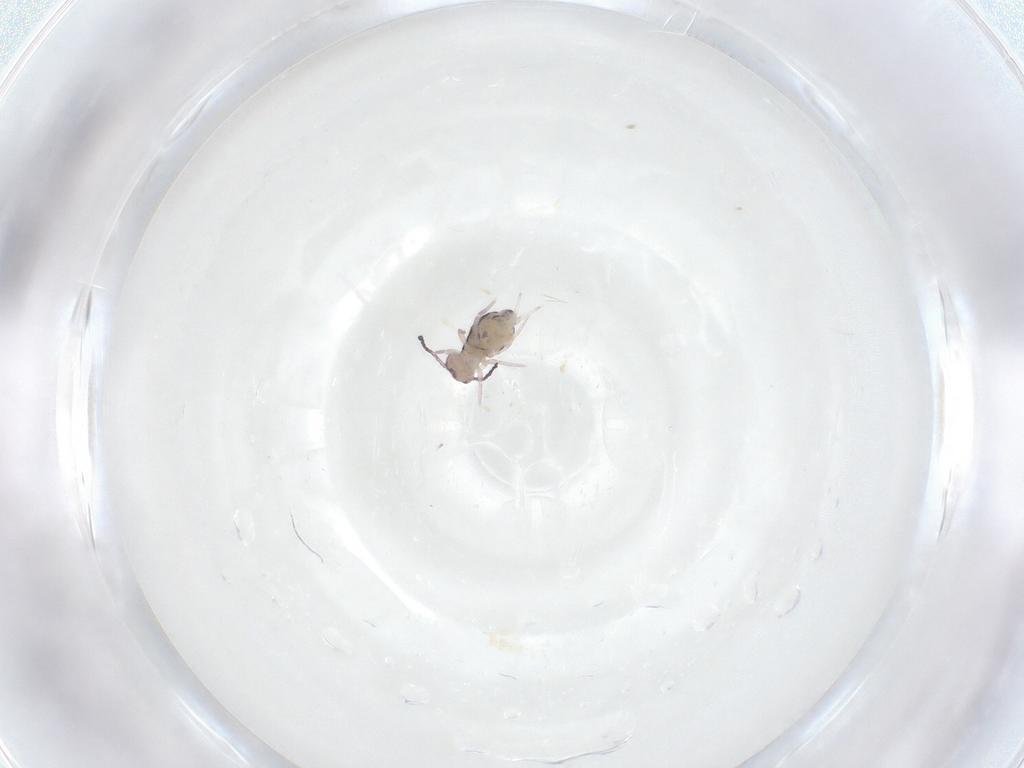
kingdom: Animalia
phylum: Arthropoda
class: Collembola
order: Symphypleona
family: Dicyrtomidae
